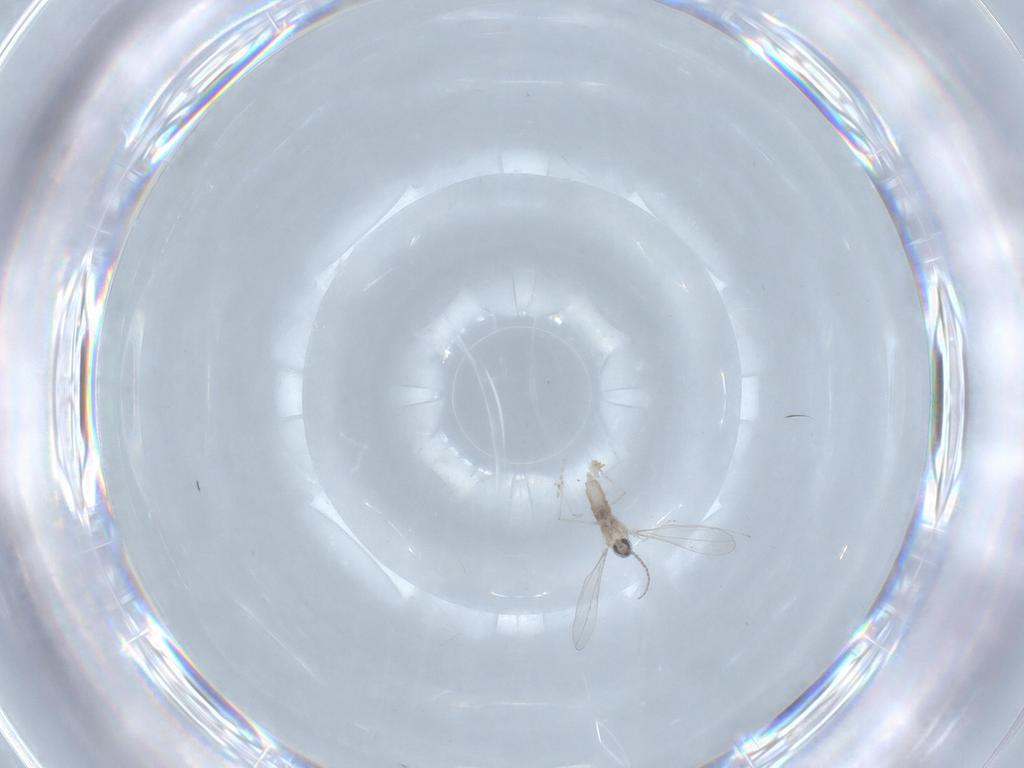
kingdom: Animalia
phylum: Arthropoda
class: Insecta
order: Diptera
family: Cecidomyiidae
